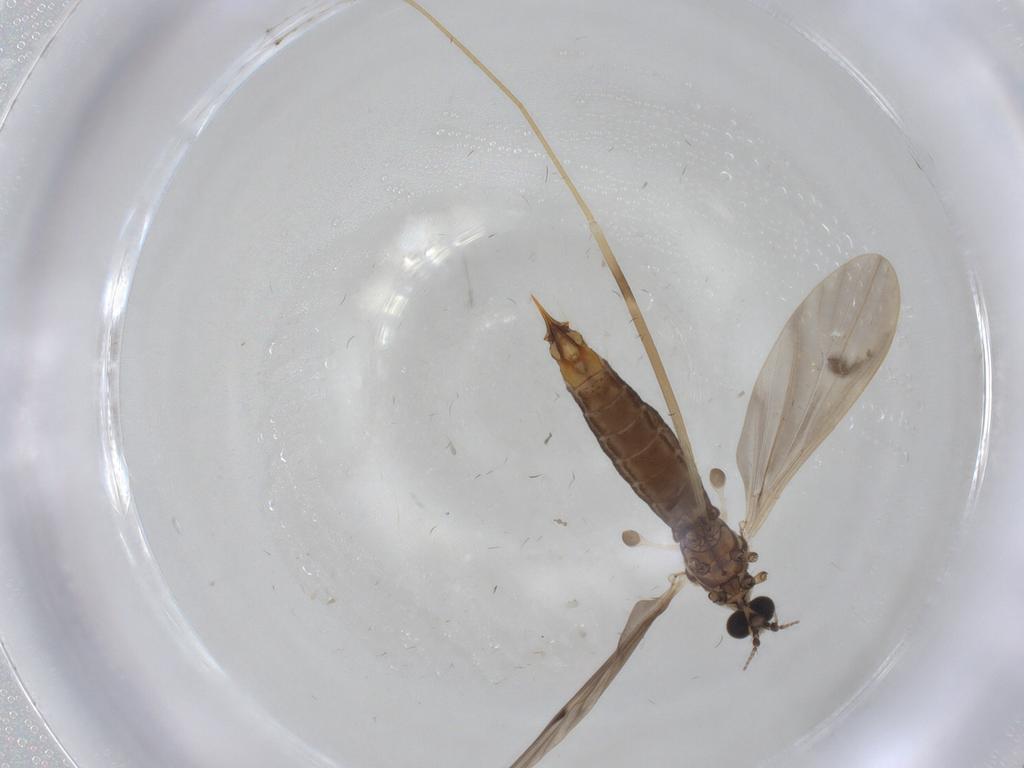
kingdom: Animalia
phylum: Arthropoda
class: Insecta
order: Diptera
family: Limoniidae
